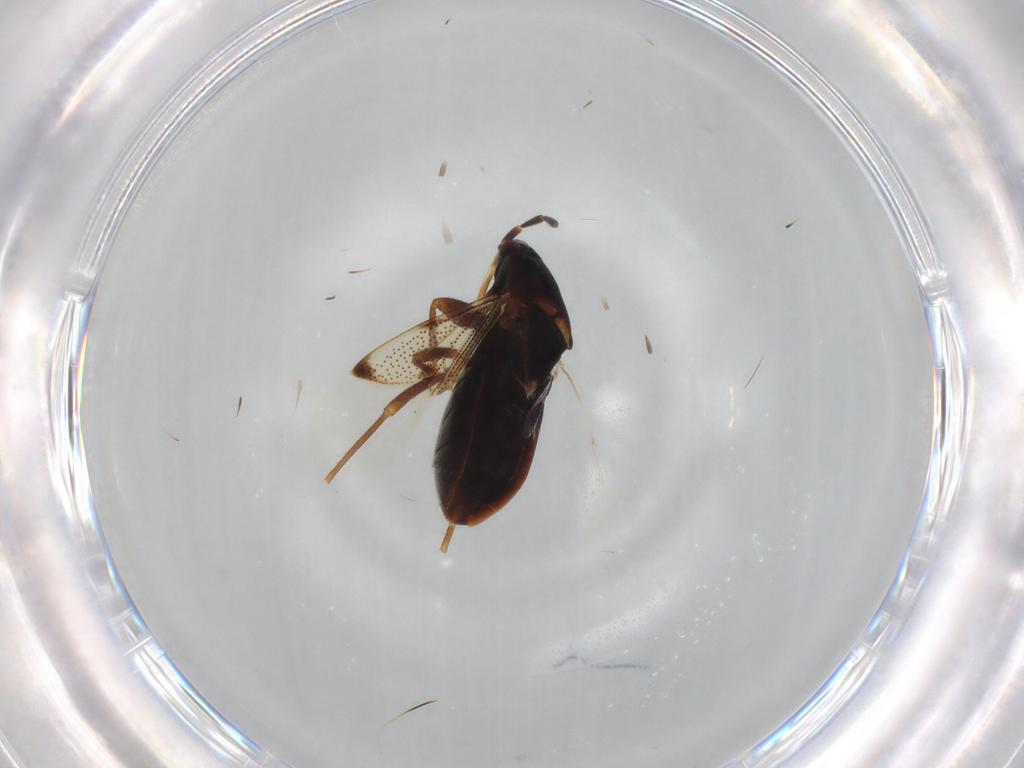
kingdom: Animalia
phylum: Arthropoda
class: Insecta
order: Hemiptera
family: Rhyparochromidae
